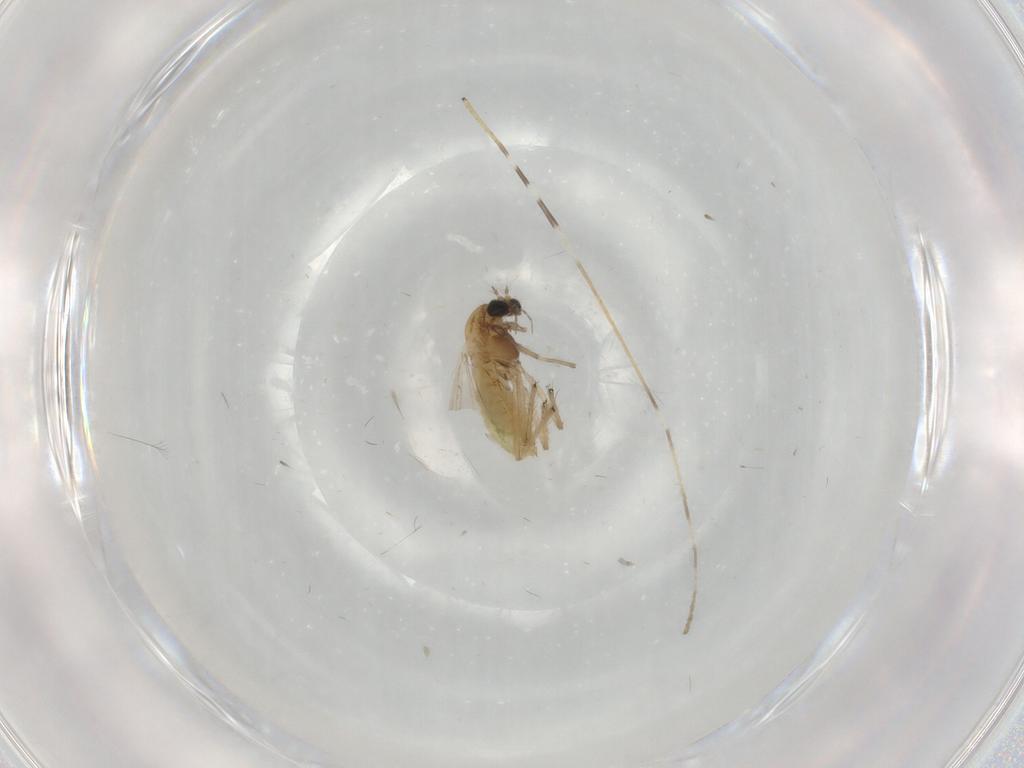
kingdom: Animalia
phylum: Arthropoda
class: Insecta
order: Diptera
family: Chironomidae
